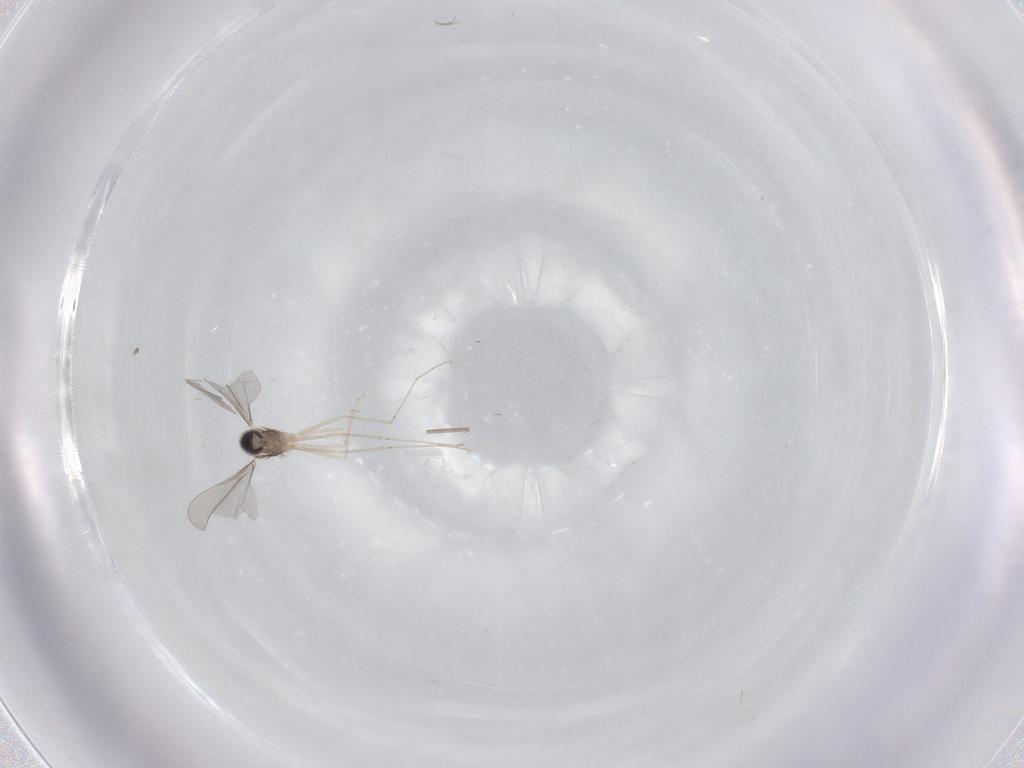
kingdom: Animalia
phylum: Arthropoda
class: Insecta
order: Diptera
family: Cecidomyiidae
